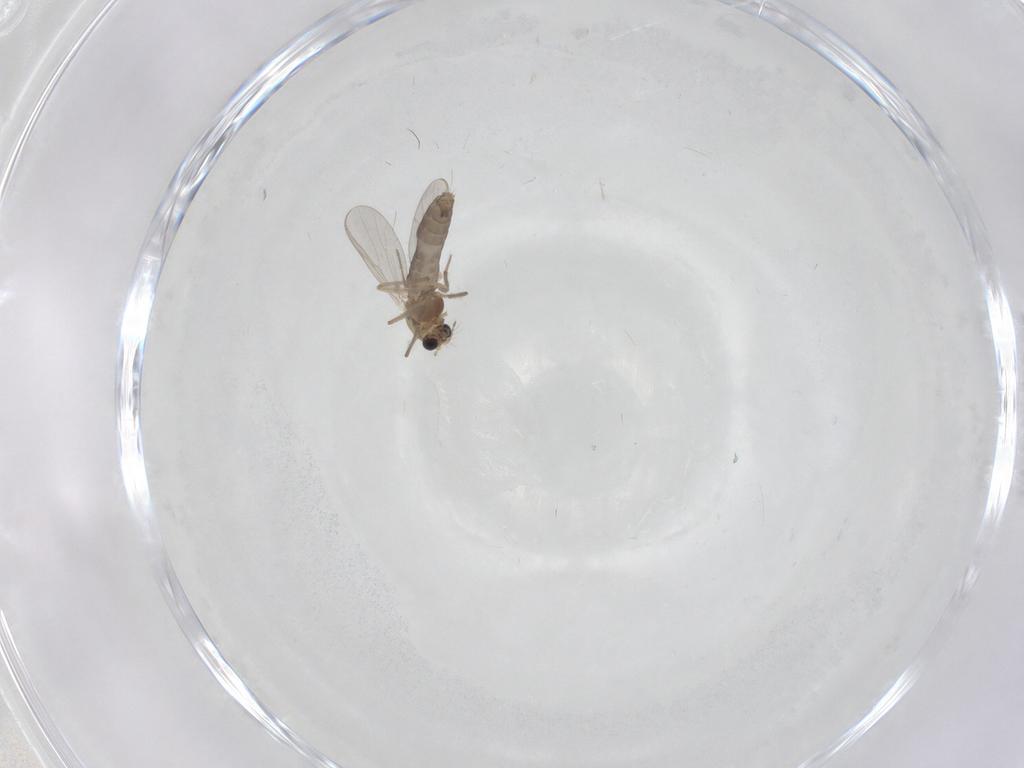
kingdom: Animalia
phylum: Arthropoda
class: Insecta
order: Diptera
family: Chironomidae
